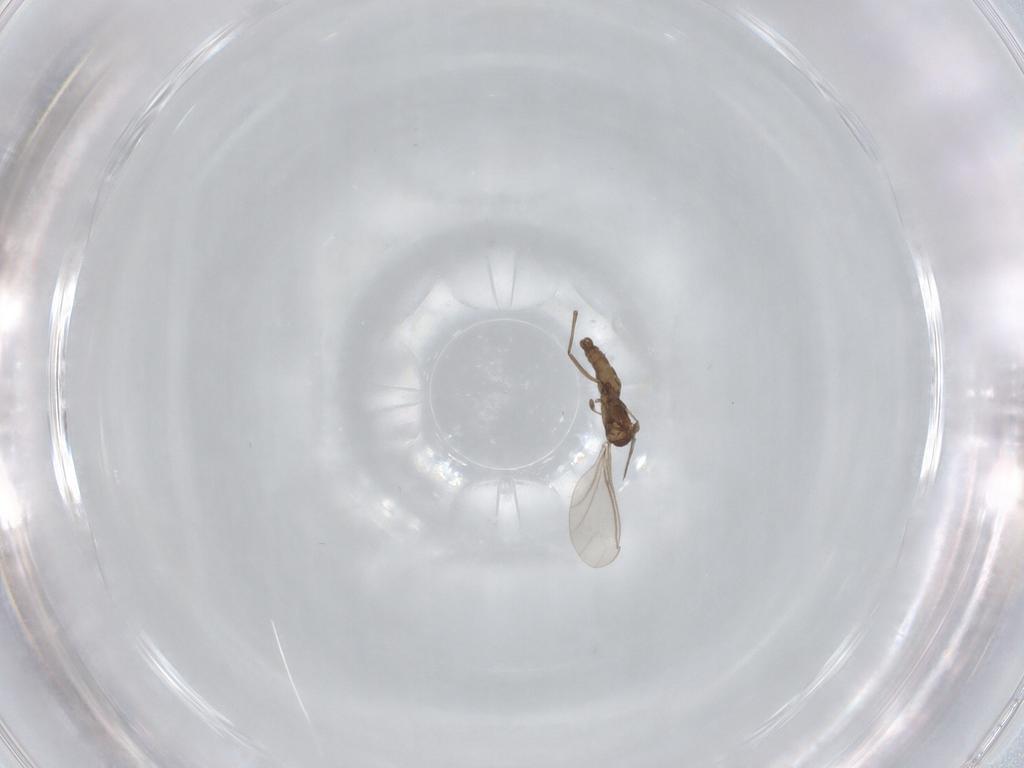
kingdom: Animalia
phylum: Arthropoda
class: Insecta
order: Diptera
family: Sciaridae
